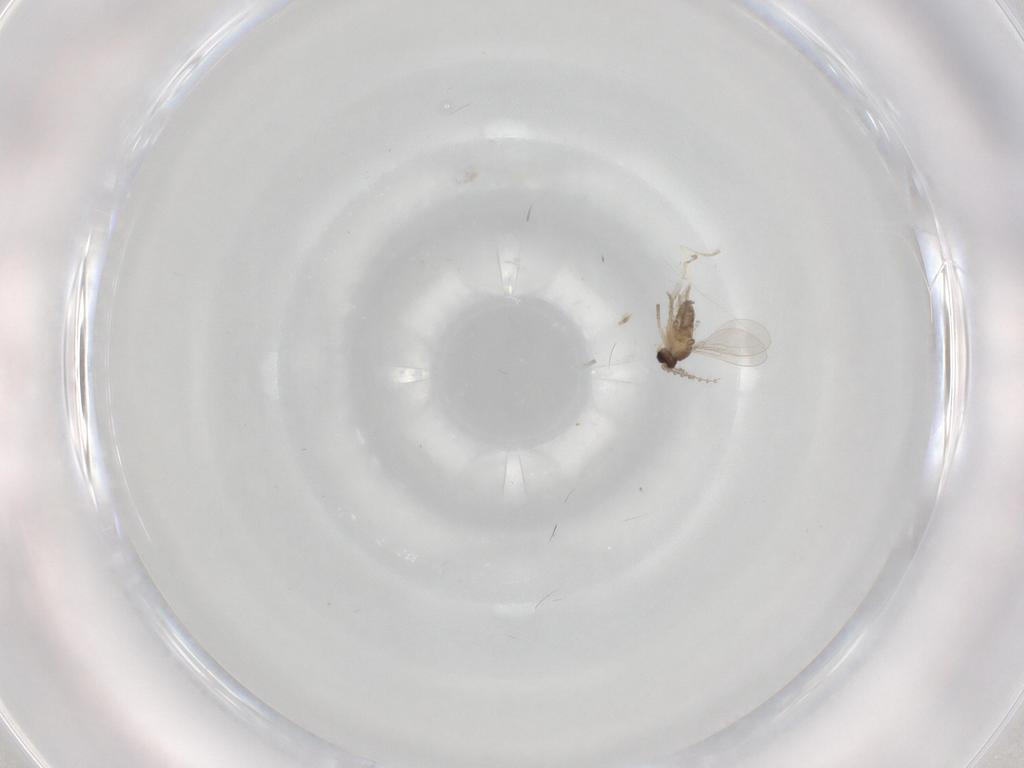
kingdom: Animalia
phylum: Arthropoda
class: Insecta
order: Diptera
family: Cecidomyiidae
